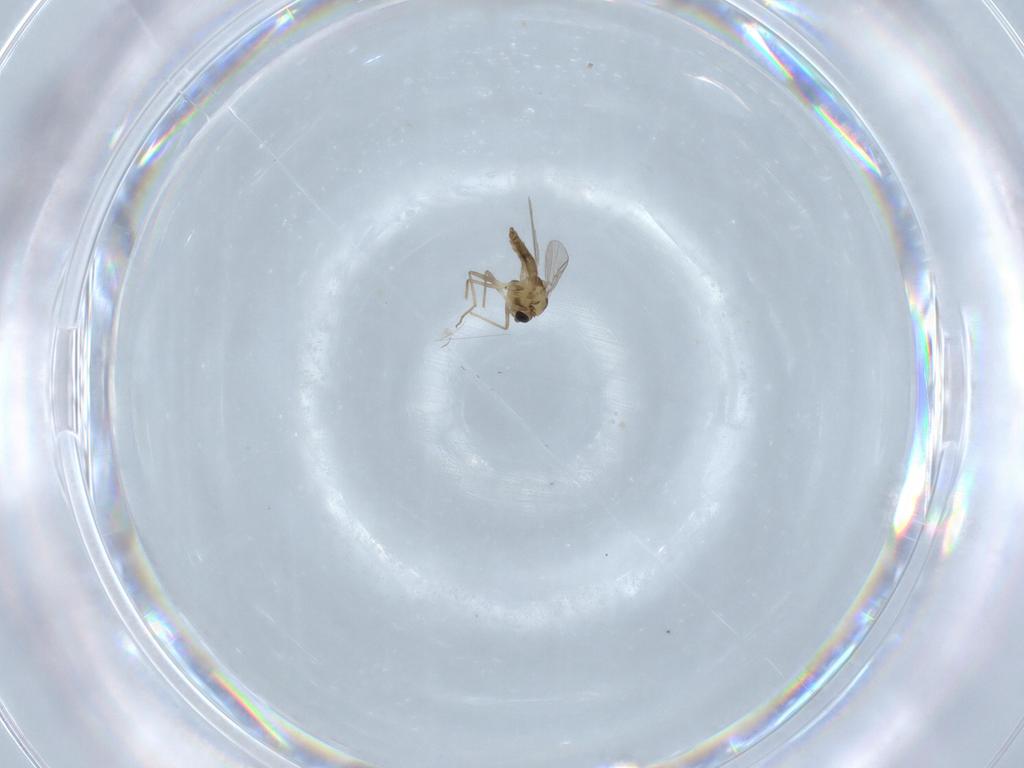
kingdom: Animalia
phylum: Arthropoda
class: Insecta
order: Diptera
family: Chironomidae
